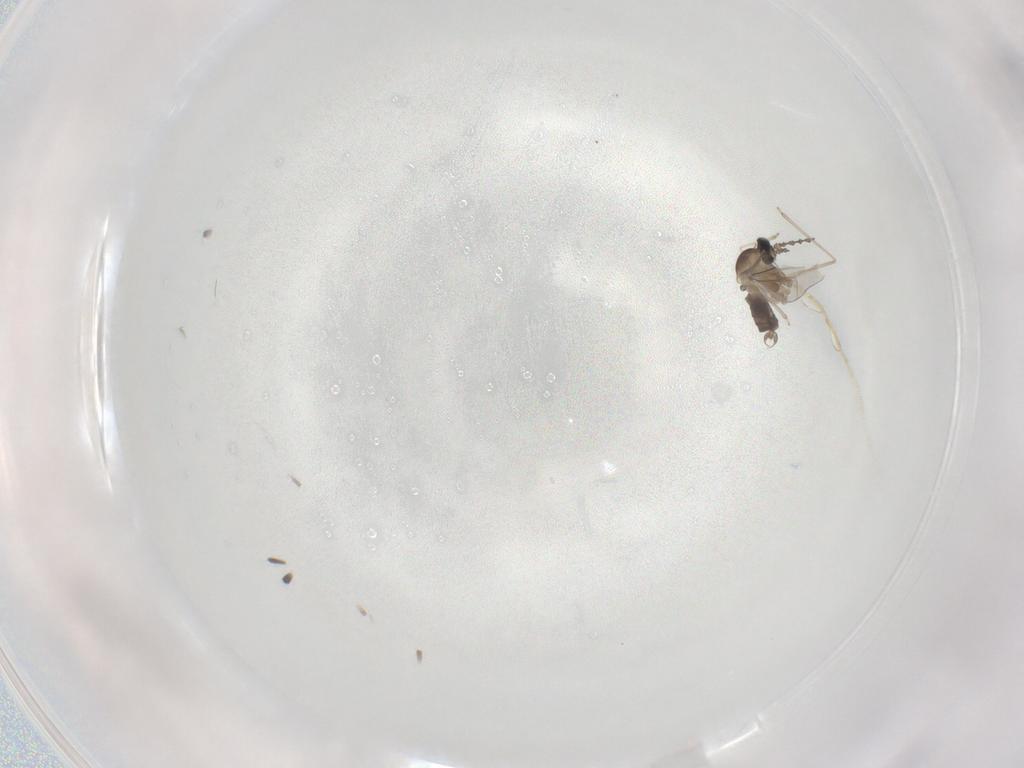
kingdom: Animalia
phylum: Arthropoda
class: Insecta
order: Diptera
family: Cecidomyiidae
